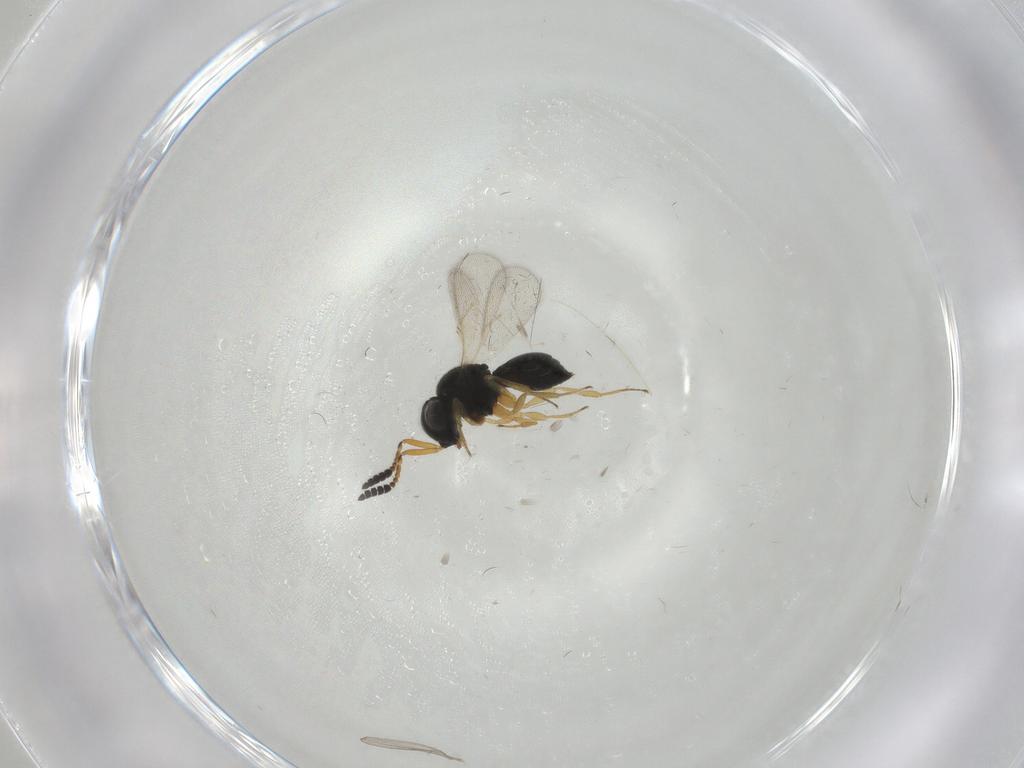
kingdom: Animalia
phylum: Arthropoda
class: Insecta
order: Hymenoptera
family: Scelionidae
